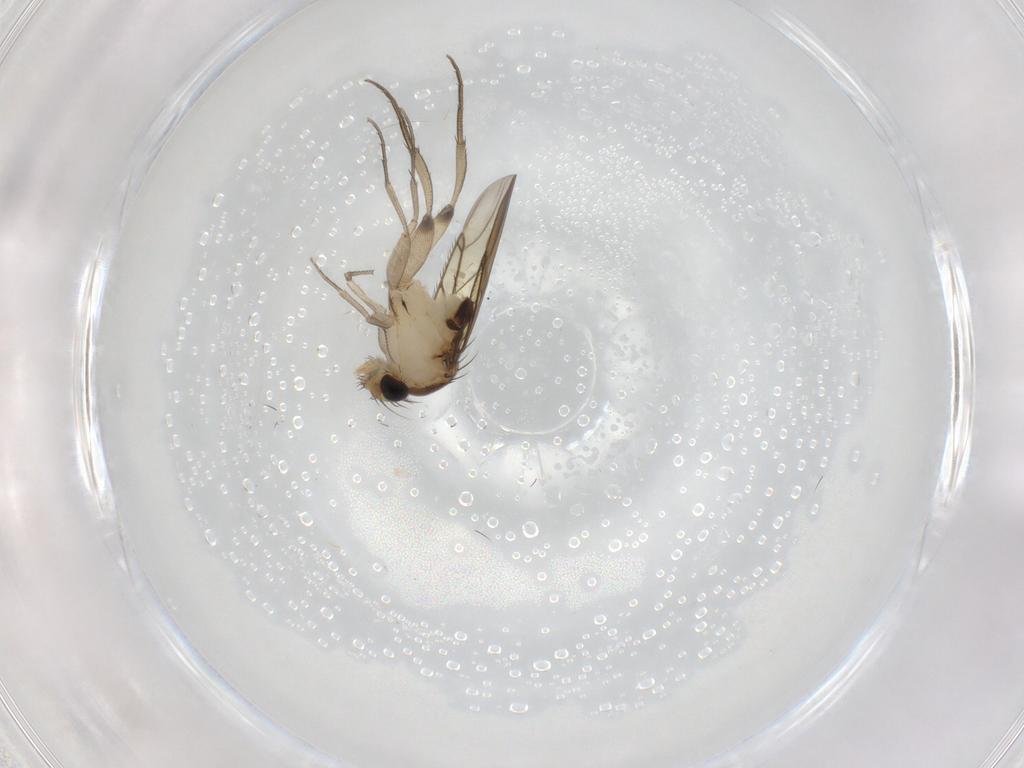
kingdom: Animalia
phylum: Arthropoda
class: Insecta
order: Diptera
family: Phoridae
